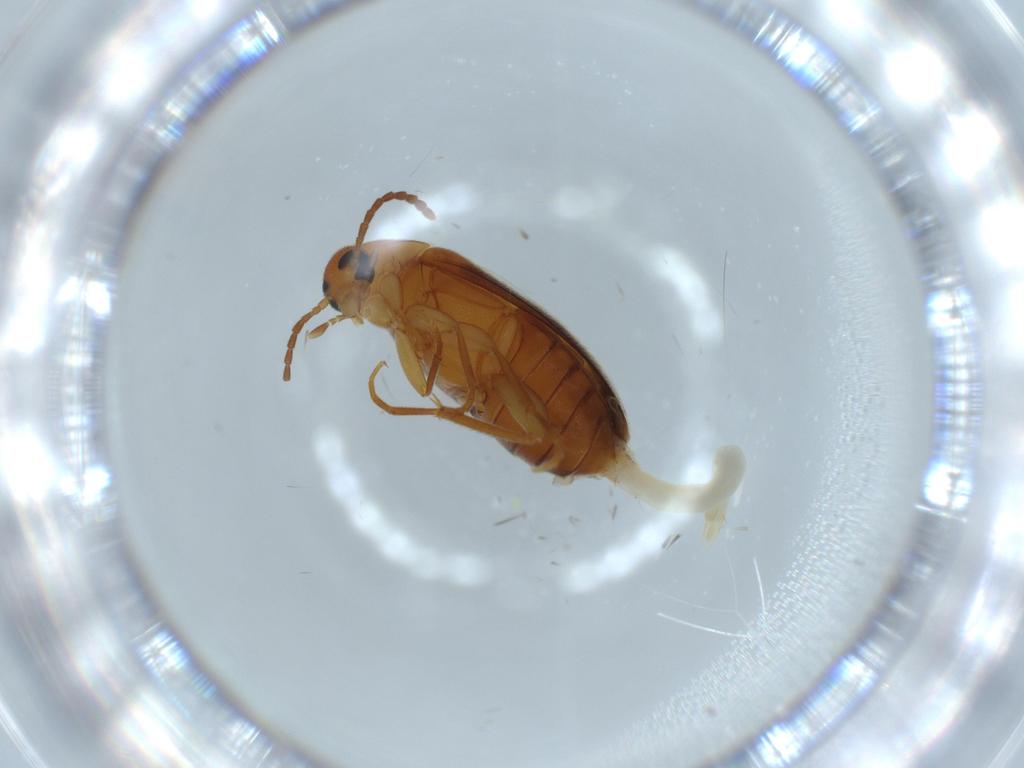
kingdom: Animalia
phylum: Arthropoda
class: Insecta
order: Coleoptera
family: Scraptiidae
